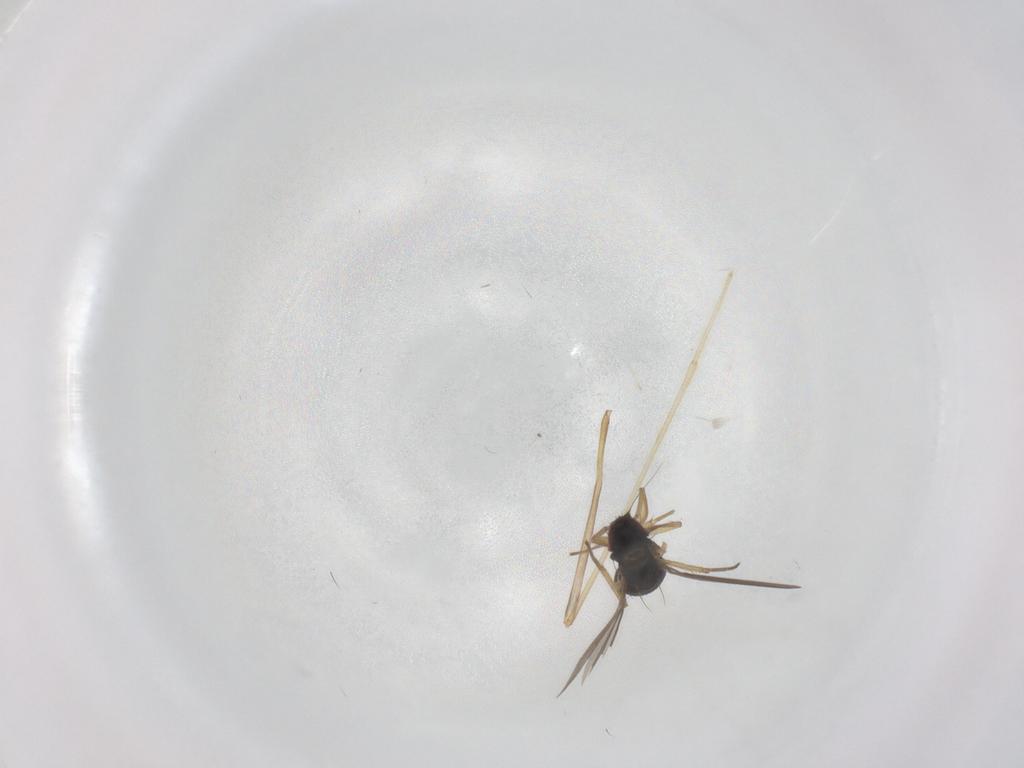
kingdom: Animalia
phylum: Arthropoda
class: Insecta
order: Diptera
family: Dolichopodidae
